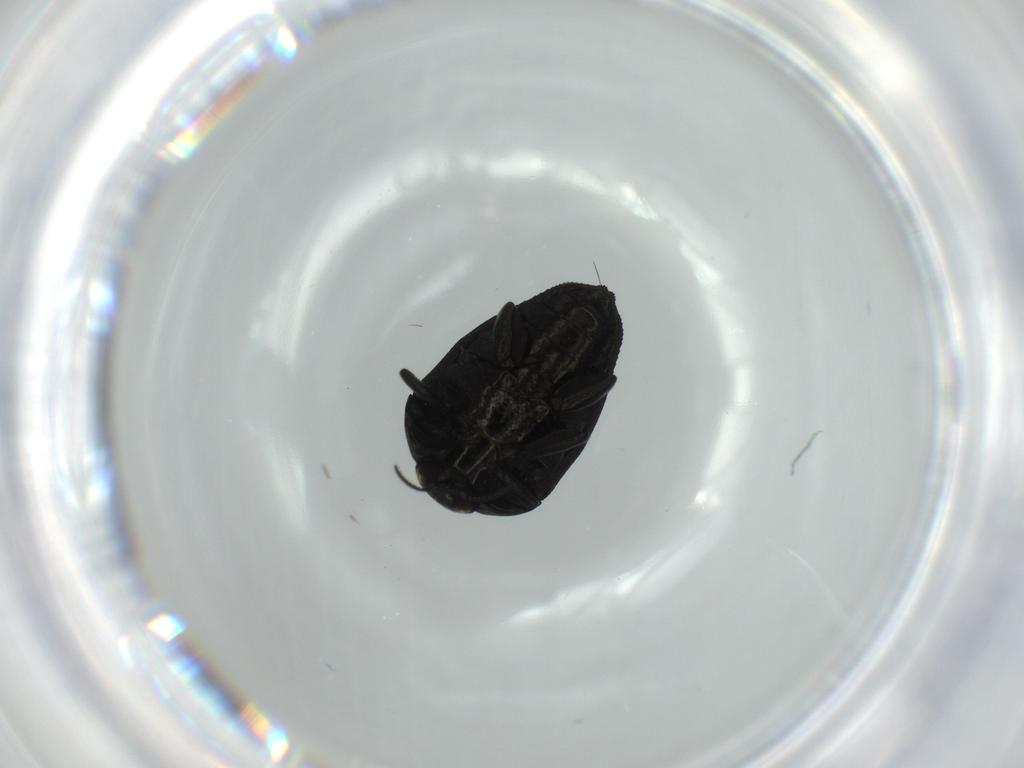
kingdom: Animalia
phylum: Arthropoda
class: Insecta
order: Coleoptera
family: Buprestidae
